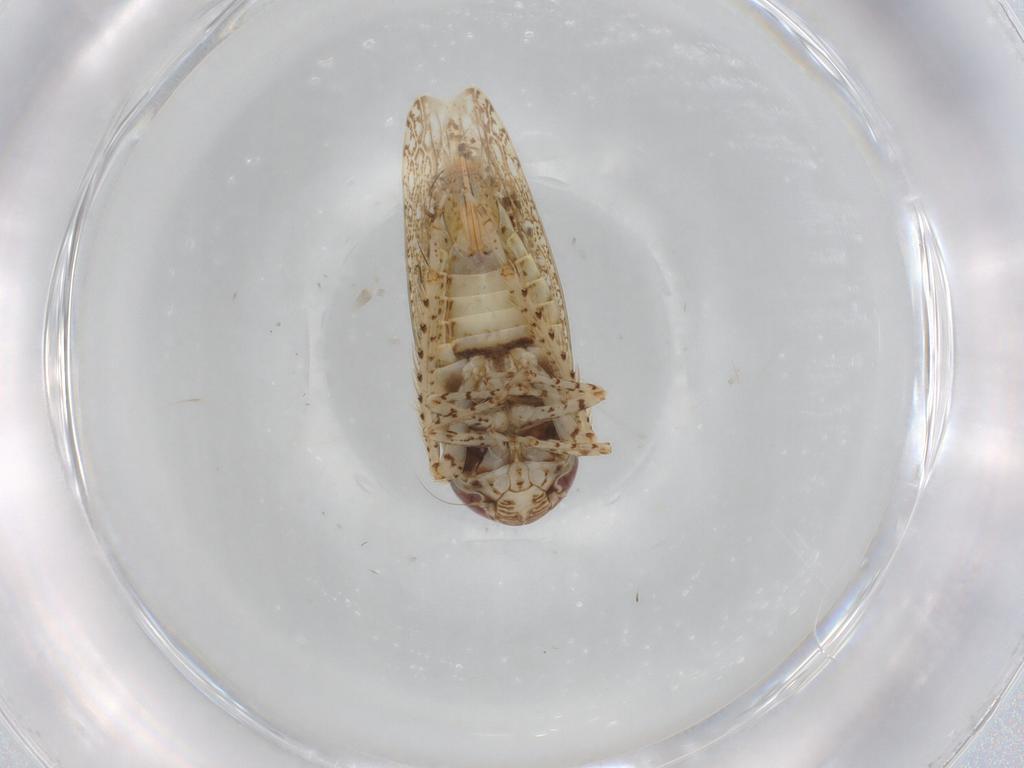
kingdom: Animalia
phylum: Arthropoda
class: Insecta
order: Hemiptera
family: Cicadellidae
